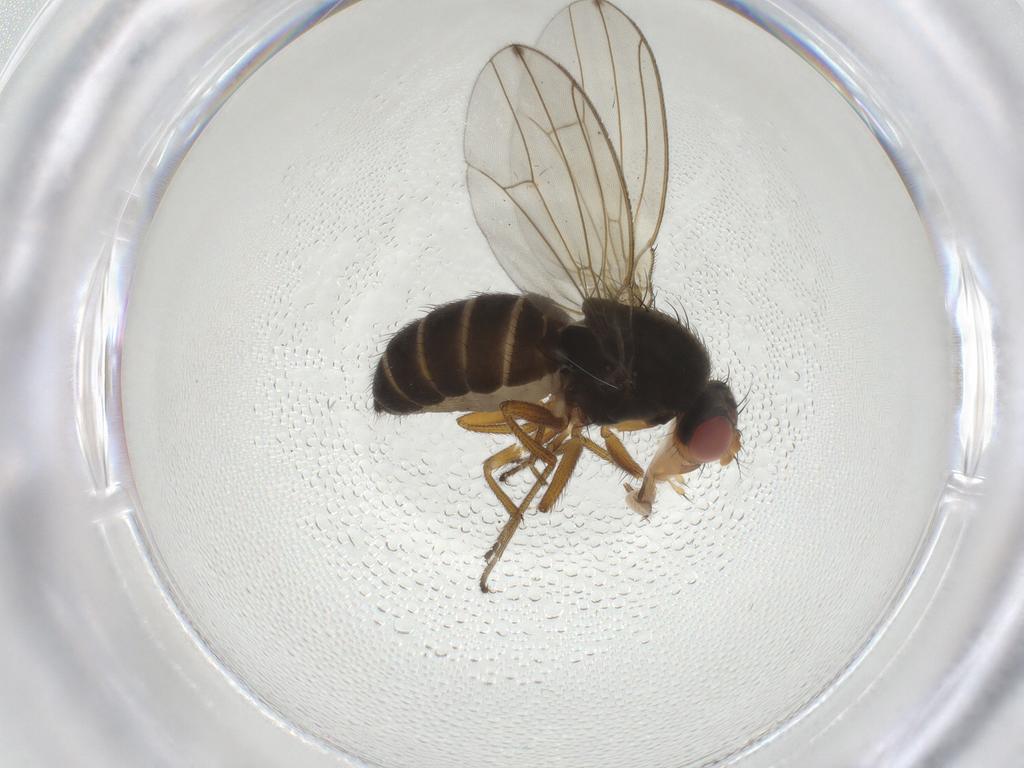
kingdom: Animalia
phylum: Arthropoda
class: Insecta
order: Diptera
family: Drosophilidae
